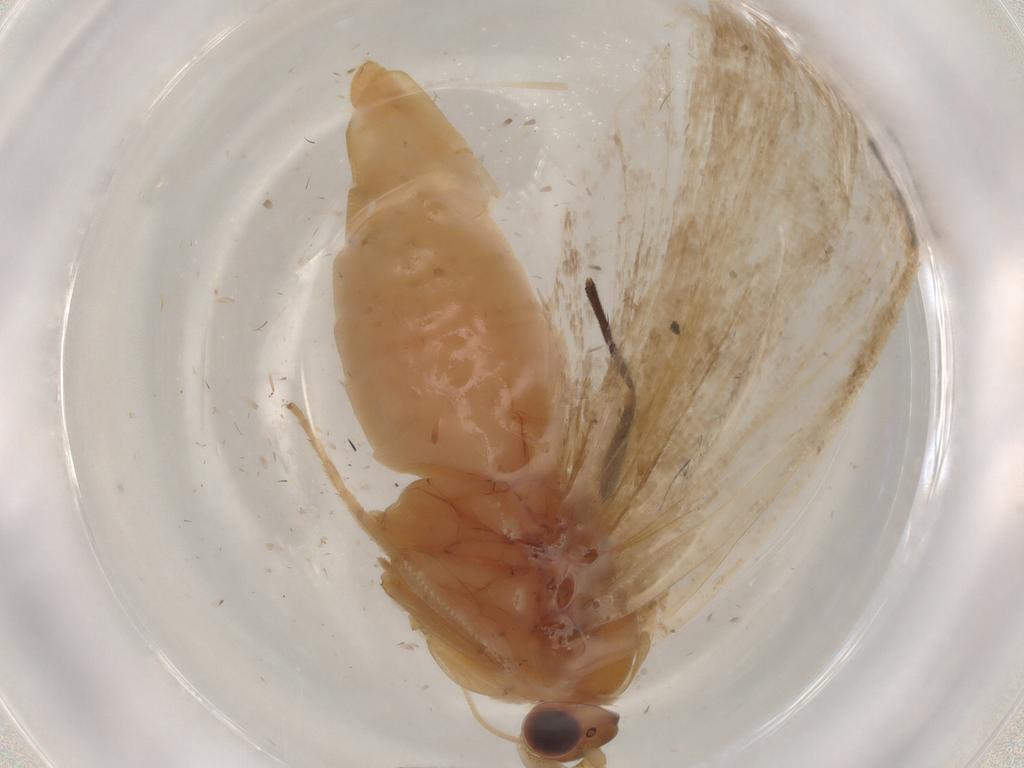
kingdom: Animalia
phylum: Arthropoda
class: Insecta
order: Lepidoptera
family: Tortricidae
